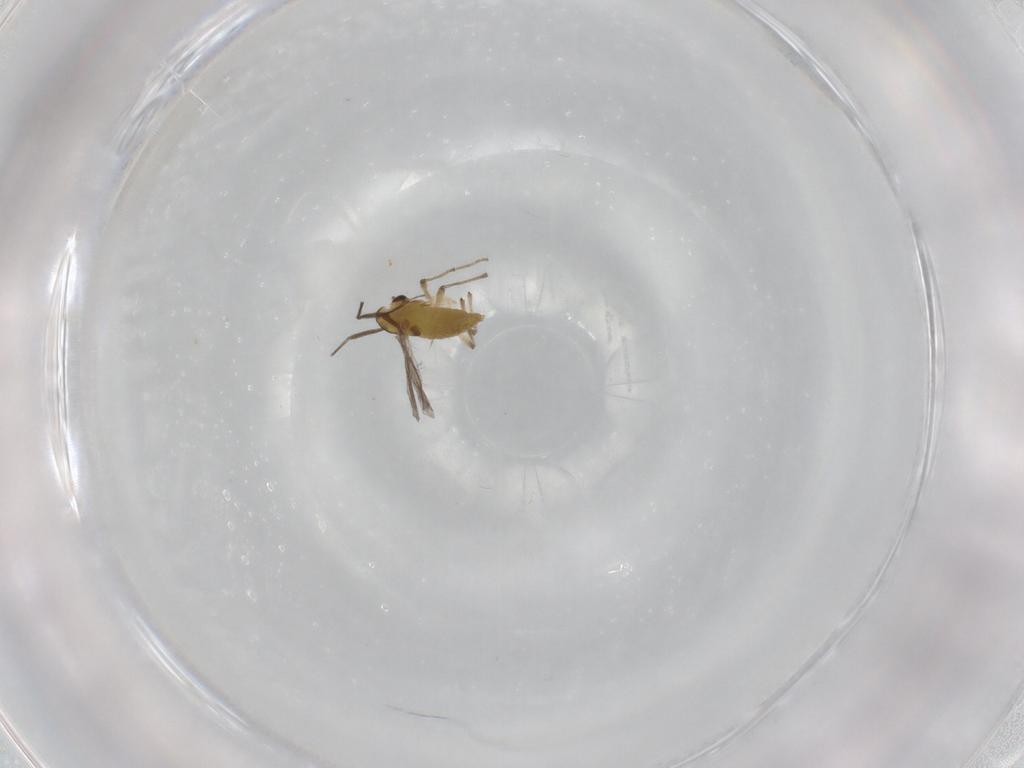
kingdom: Animalia
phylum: Arthropoda
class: Insecta
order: Diptera
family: Chironomidae
